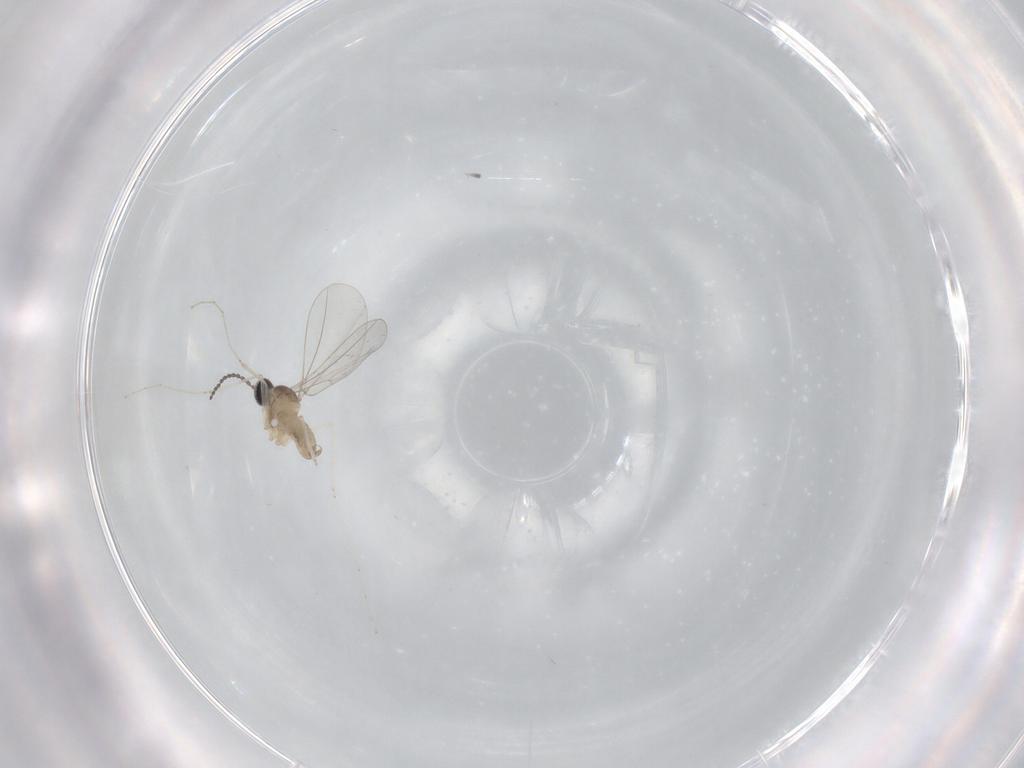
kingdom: Animalia
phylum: Arthropoda
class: Insecta
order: Diptera
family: Cecidomyiidae
